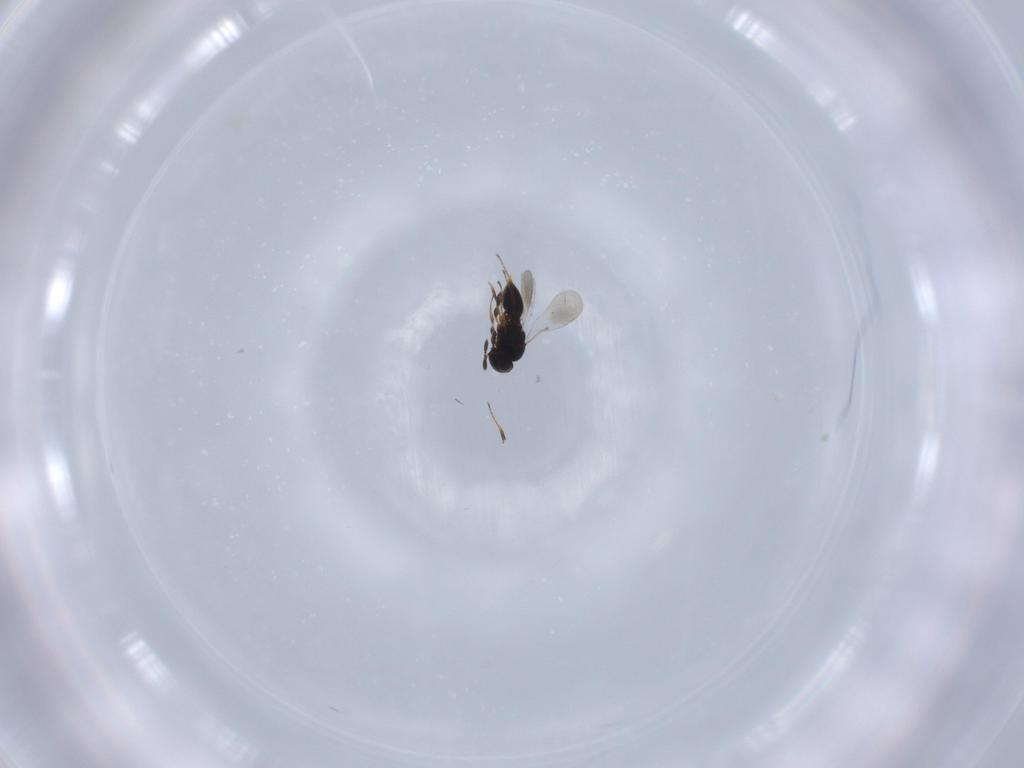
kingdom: Animalia
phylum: Arthropoda
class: Insecta
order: Hymenoptera
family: Platygastridae
